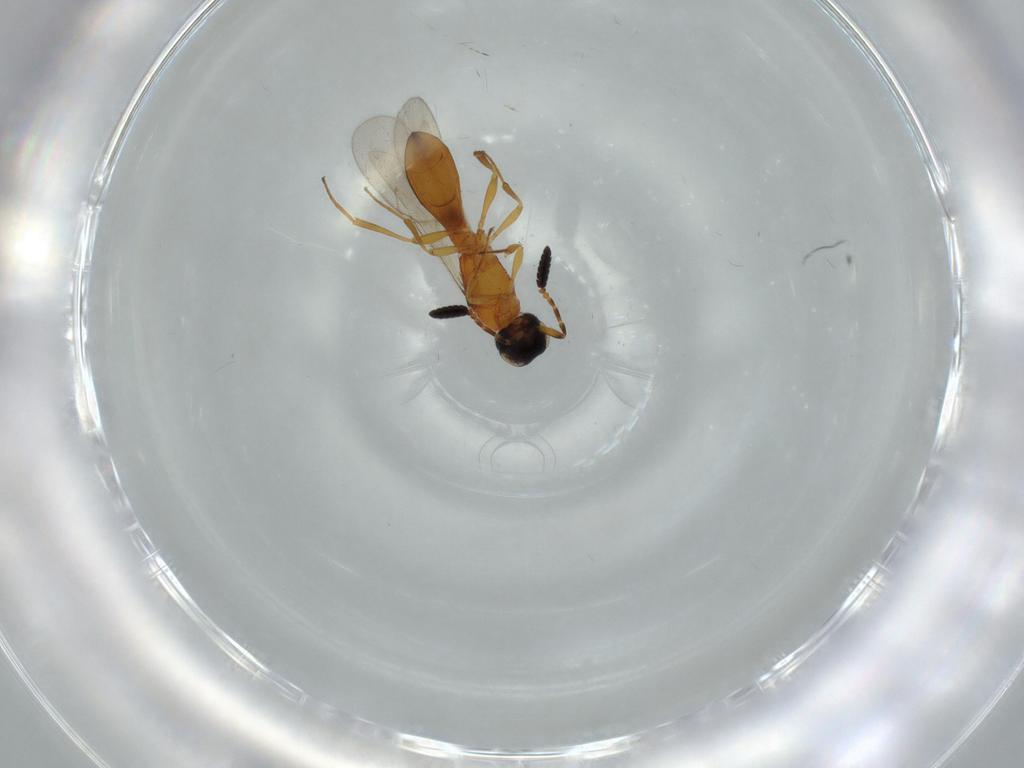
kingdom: Animalia
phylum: Arthropoda
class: Insecta
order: Hymenoptera
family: Scelionidae
